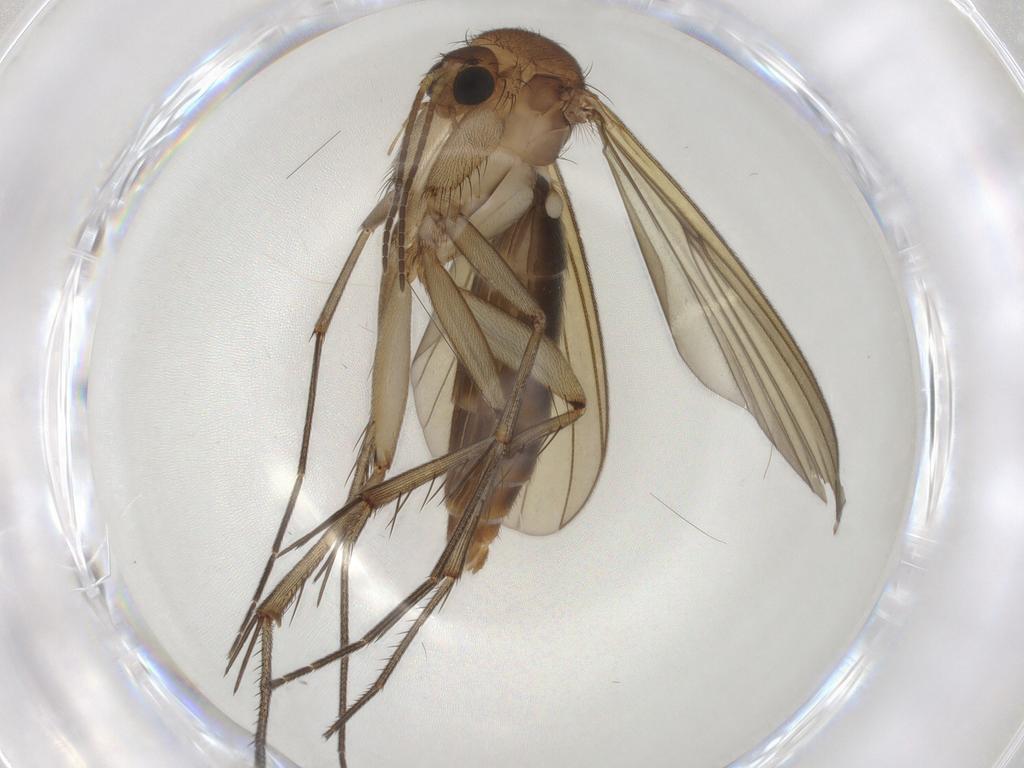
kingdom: Animalia
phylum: Arthropoda
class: Insecta
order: Diptera
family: Mycetophilidae
